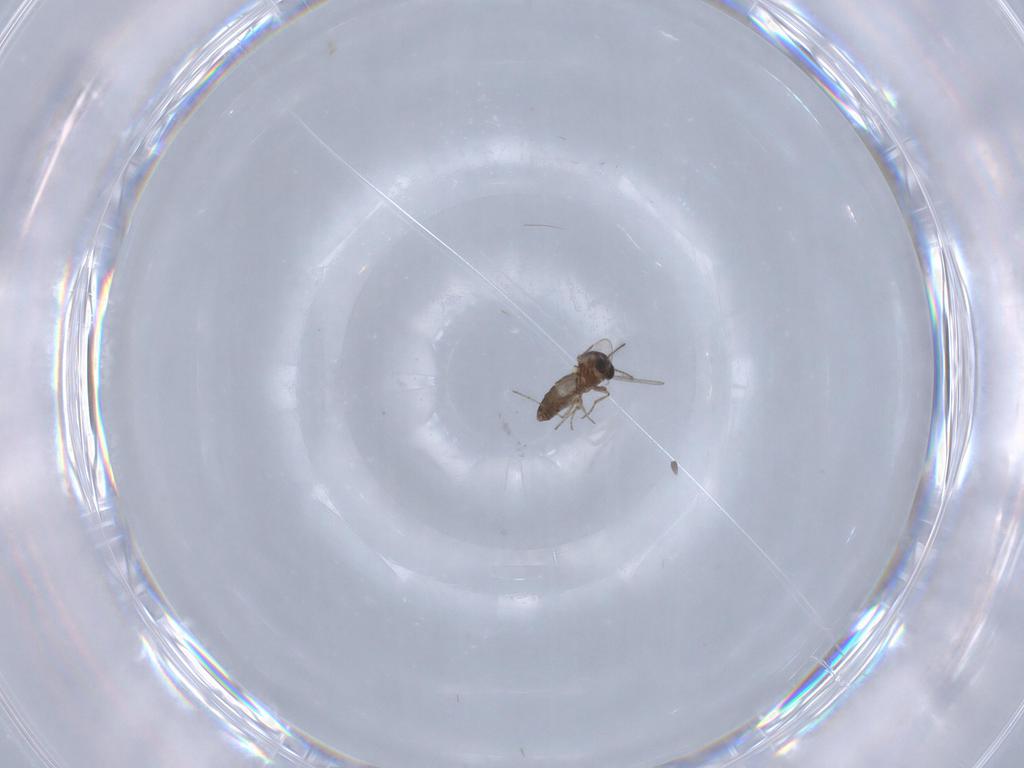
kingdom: Animalia
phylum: Arthropoda
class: Insecta
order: Diptera
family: Ceratopogonidae
